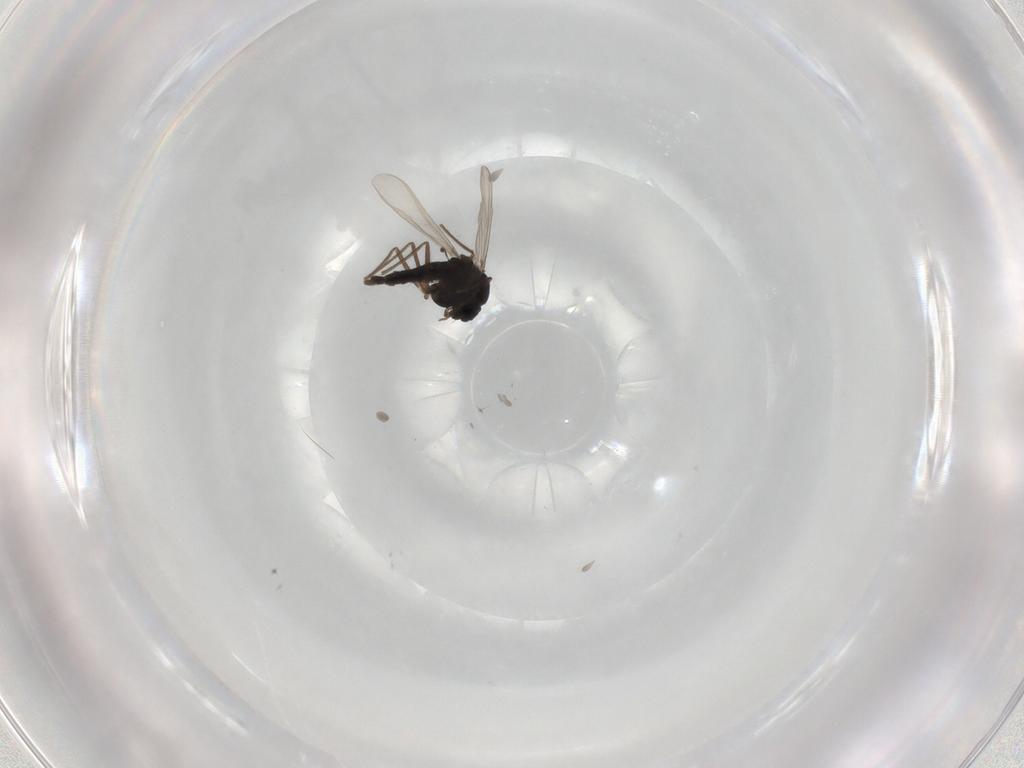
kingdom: Animalia
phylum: Arthropoda
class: Insecta
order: Diptera
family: Chironomidae
